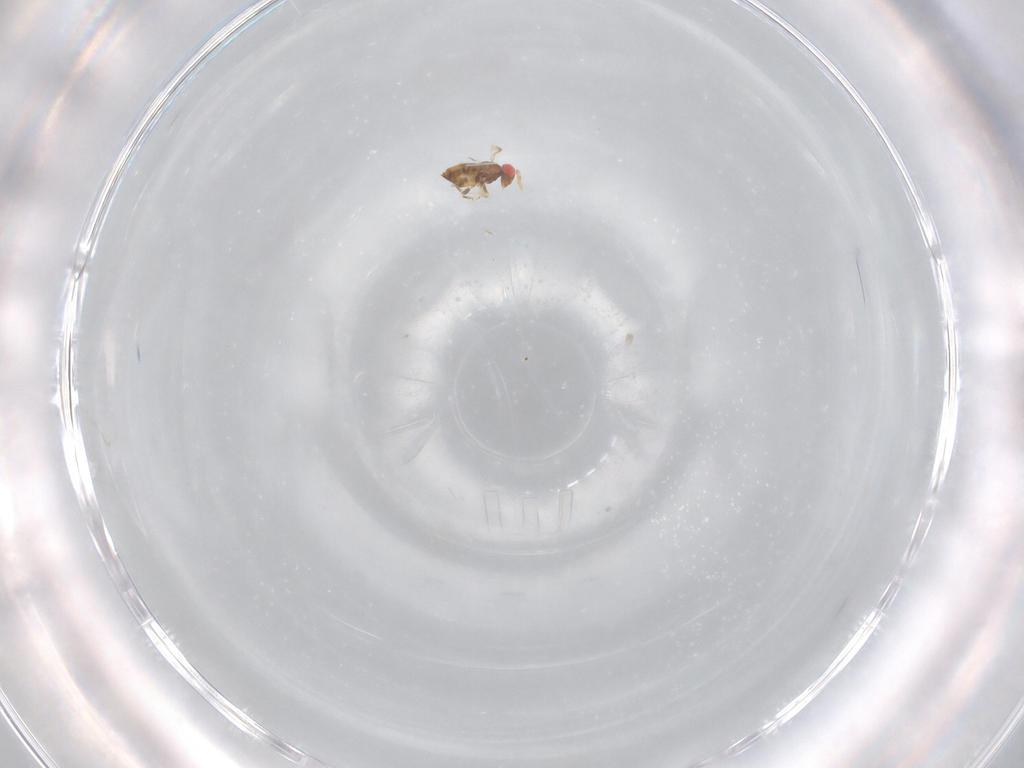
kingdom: Animalia
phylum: Arthropoda
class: Insecta
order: Hymenoptera
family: Trichogrammatidae
